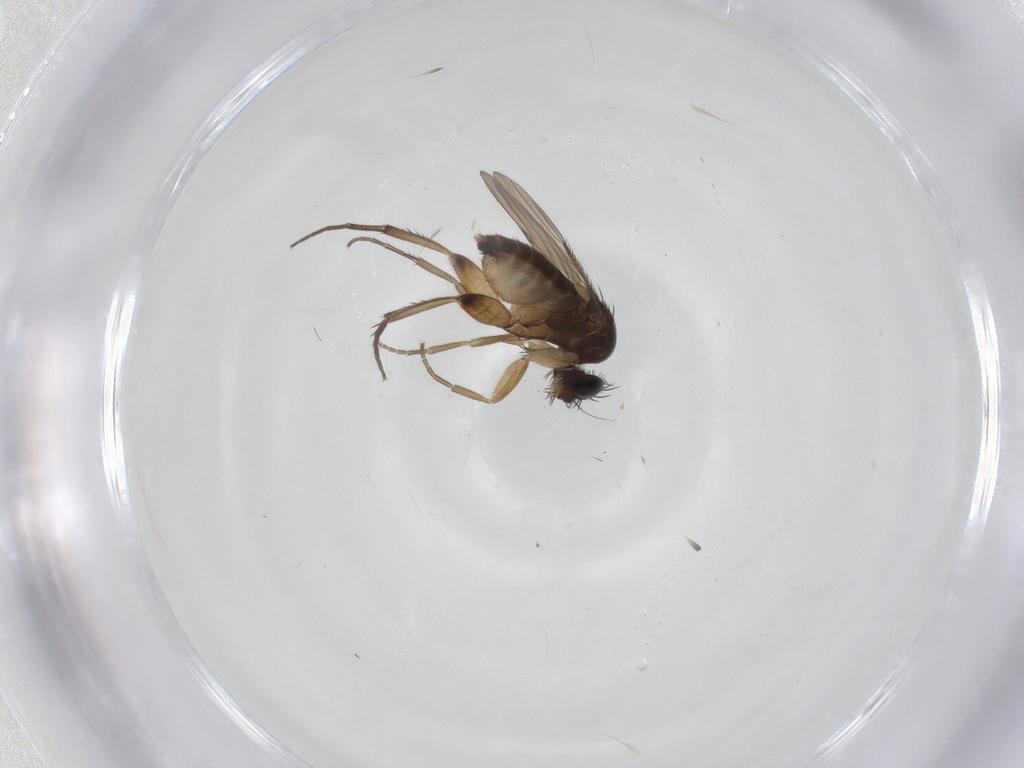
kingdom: Animalia
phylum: Arthropoda
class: Insecta
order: Diptera
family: Phoridae
